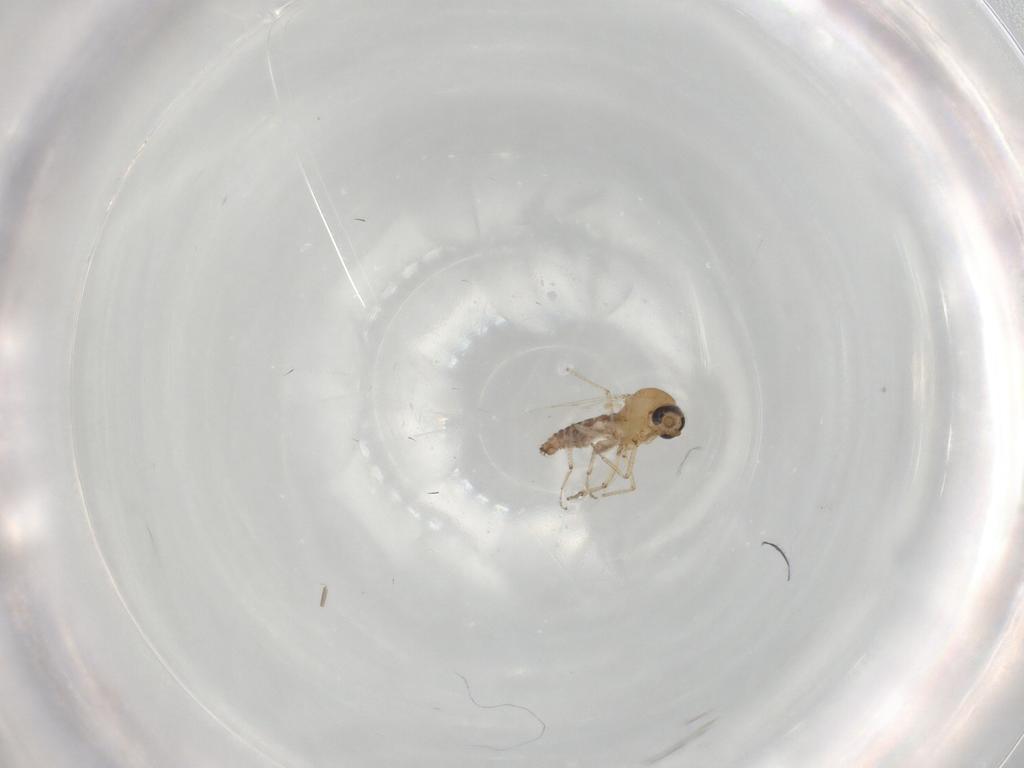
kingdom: Animalia
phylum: Arthropoda
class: Insecta
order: Diptera
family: Ceratopogonidae
